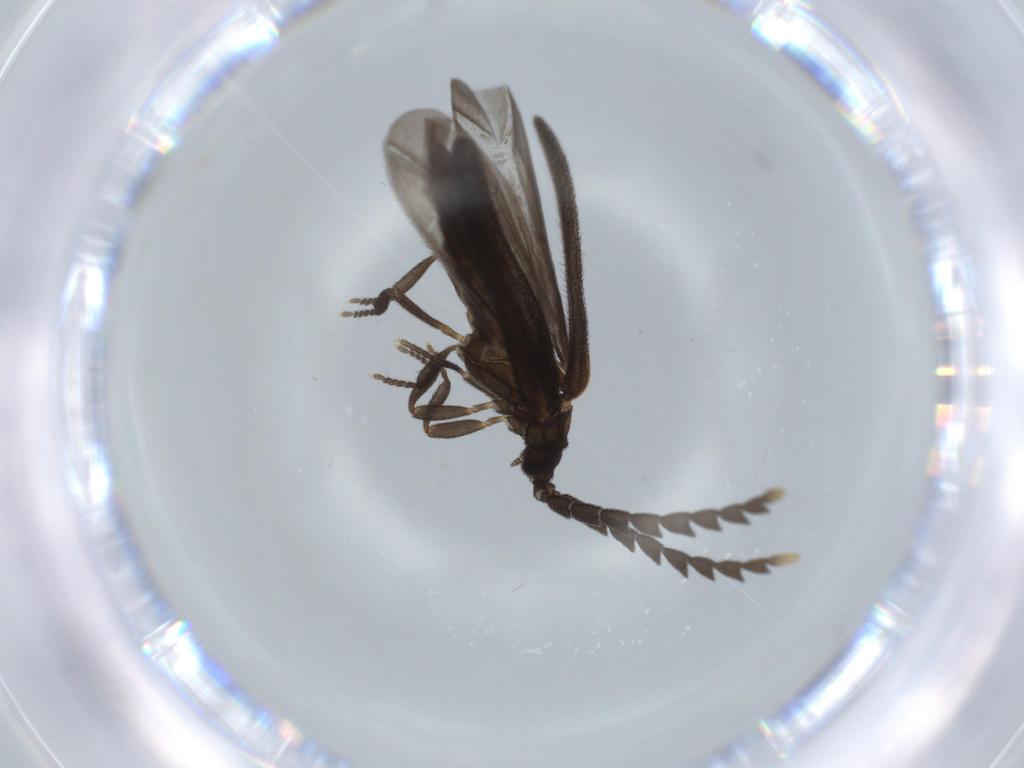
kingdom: Animalia
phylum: Arthropoda
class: Insecta
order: Coleoptera
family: Lycidae
